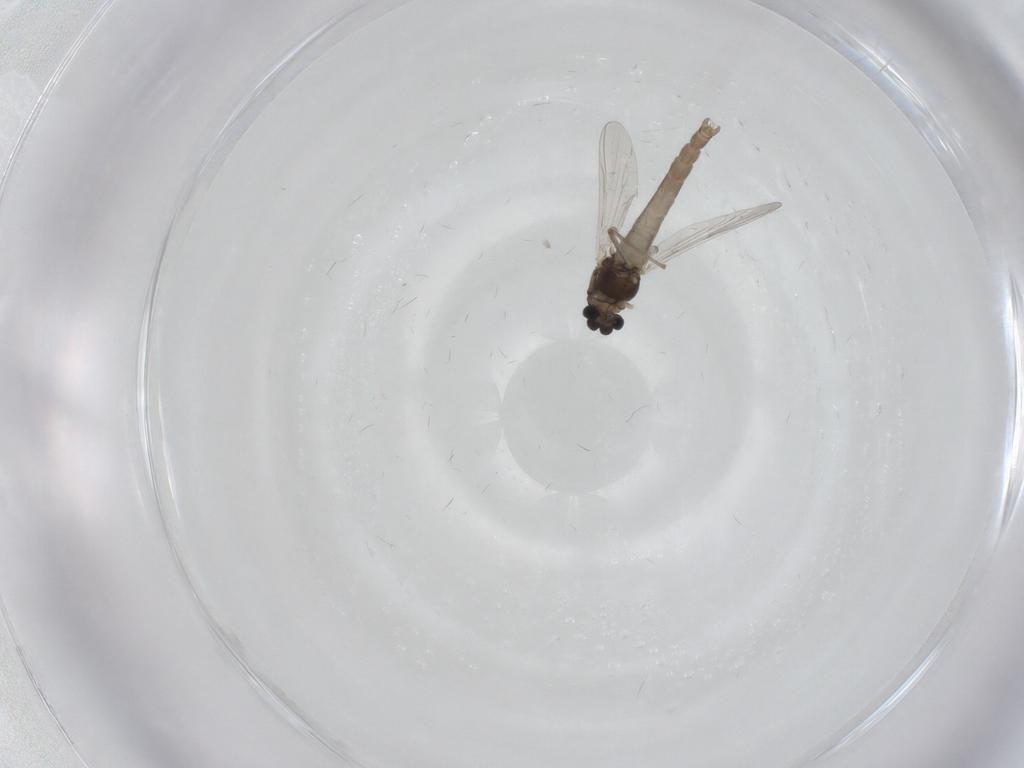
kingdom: Animalia
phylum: Arthropoda
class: Insecta
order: Diptera
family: Chironomidae
